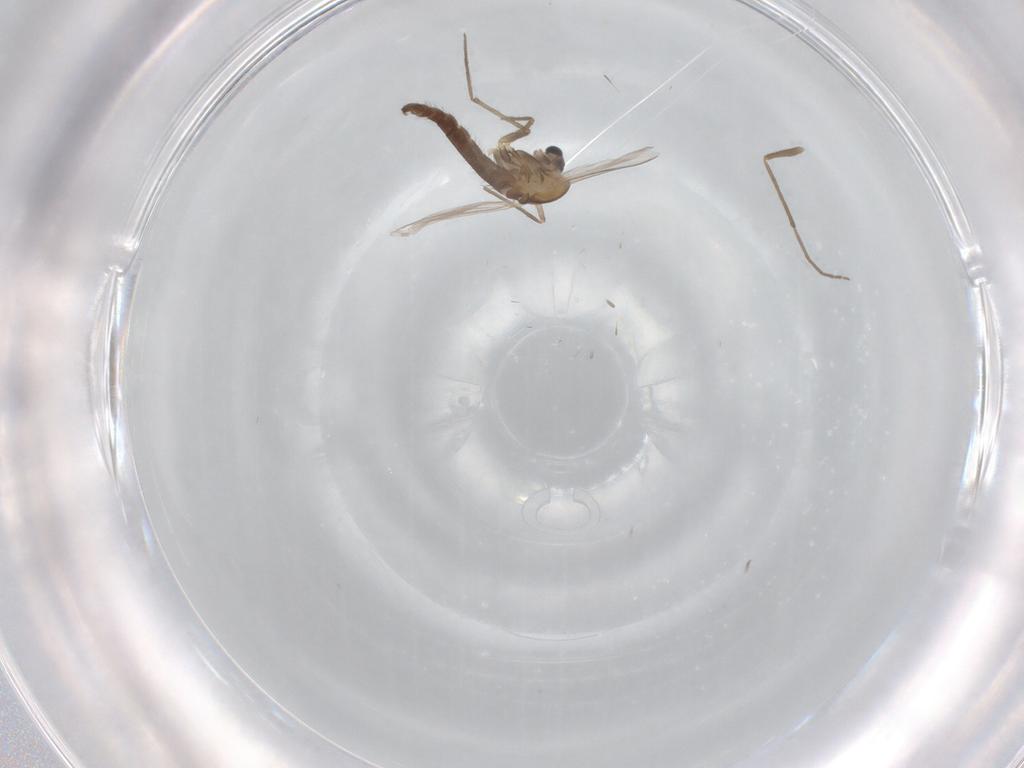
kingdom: Animalia
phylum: Arthropoda
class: Insecta
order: Diptera
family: Chironomidae
